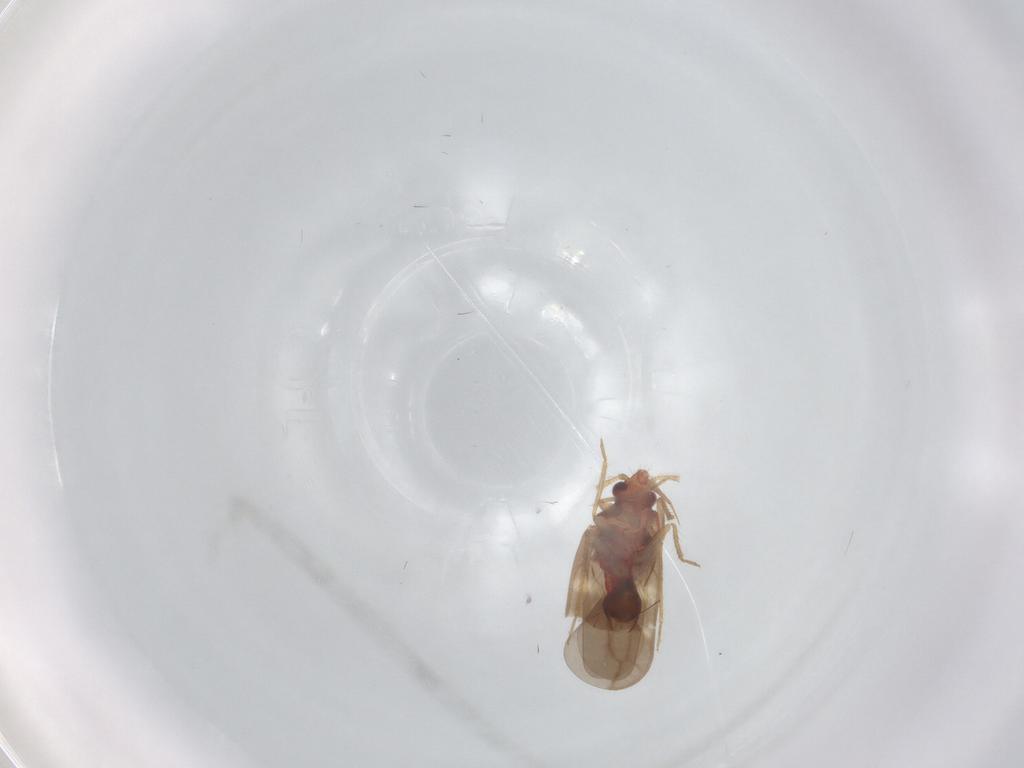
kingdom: Animalia
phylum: Arthropoda
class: Insecta
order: Hemiptera
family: Ceratocombidae
